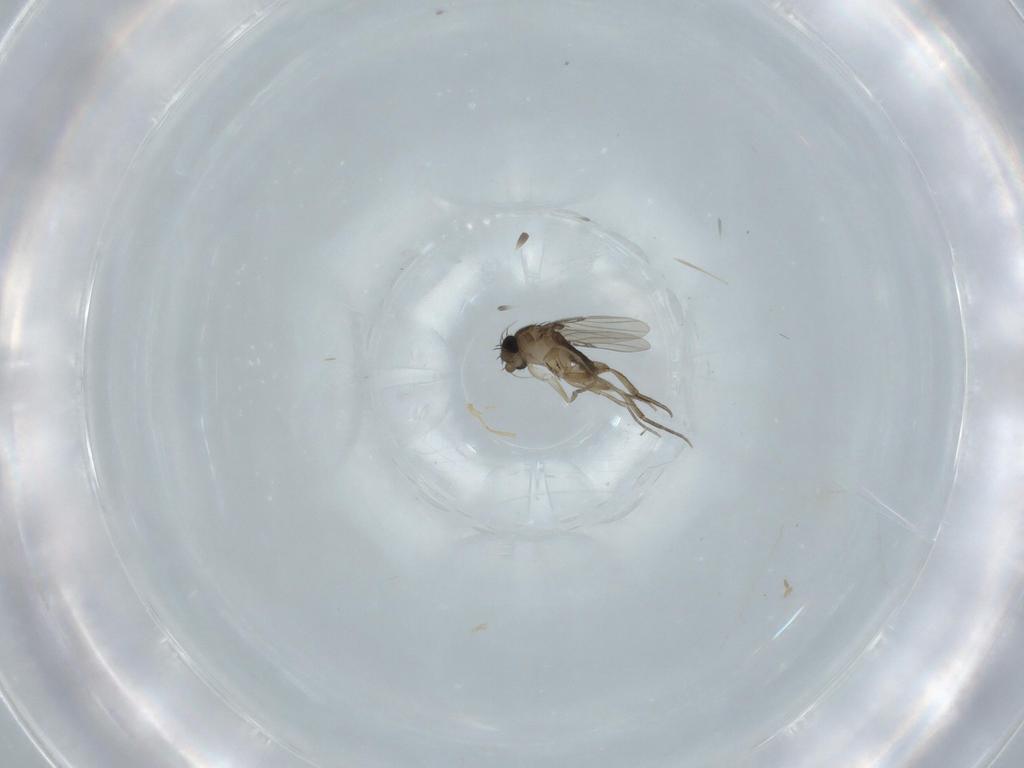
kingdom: Animalia
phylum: Arthropoda
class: Insecta
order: Diptera
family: Phoridae
